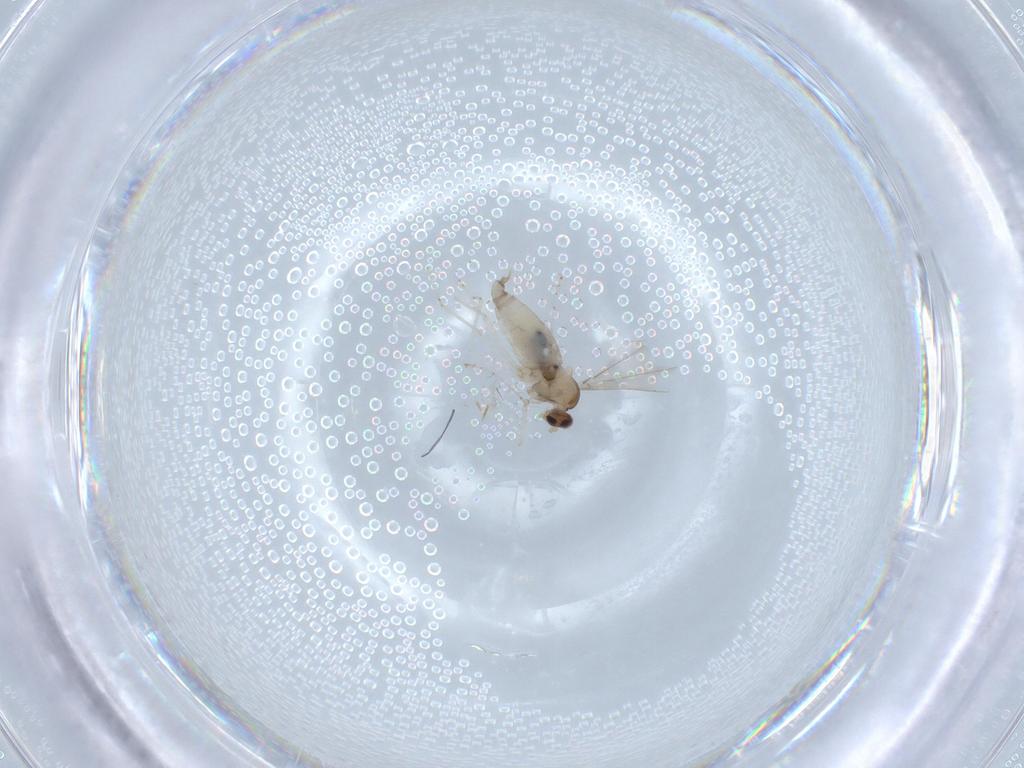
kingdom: Animalia
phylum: Arthropoda
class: Insecta
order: Diptera
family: Cecidomyiidae
